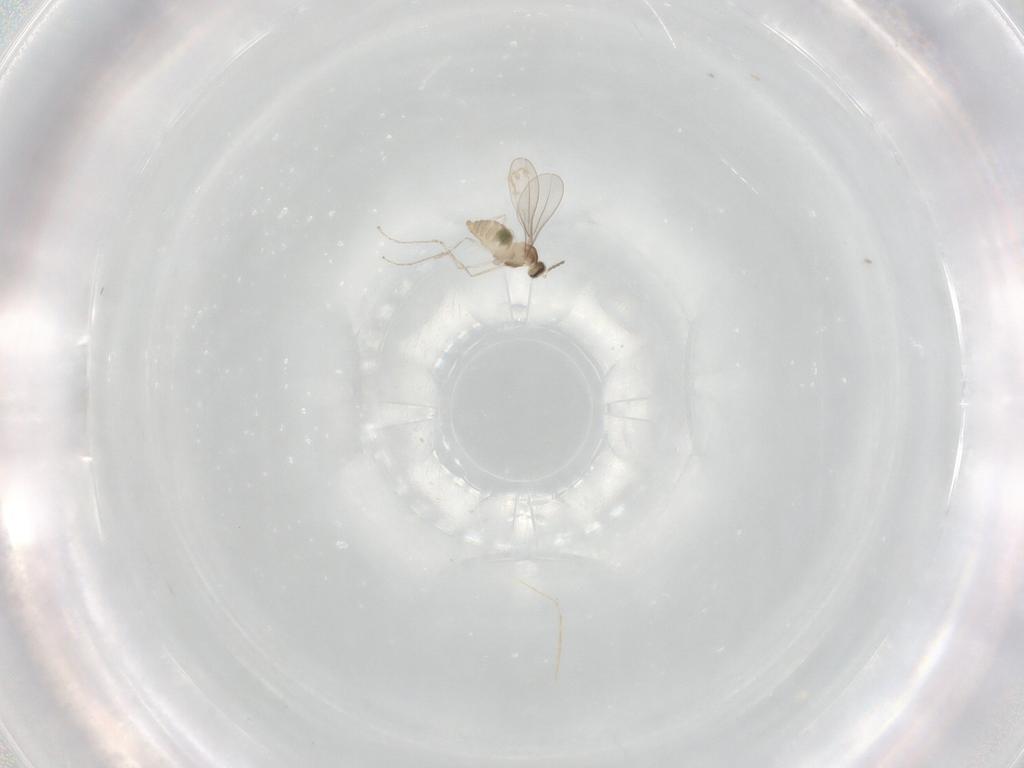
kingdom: Animalia
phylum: Arthropoda
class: Insecta
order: Diptera
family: Cecidomyiidae
